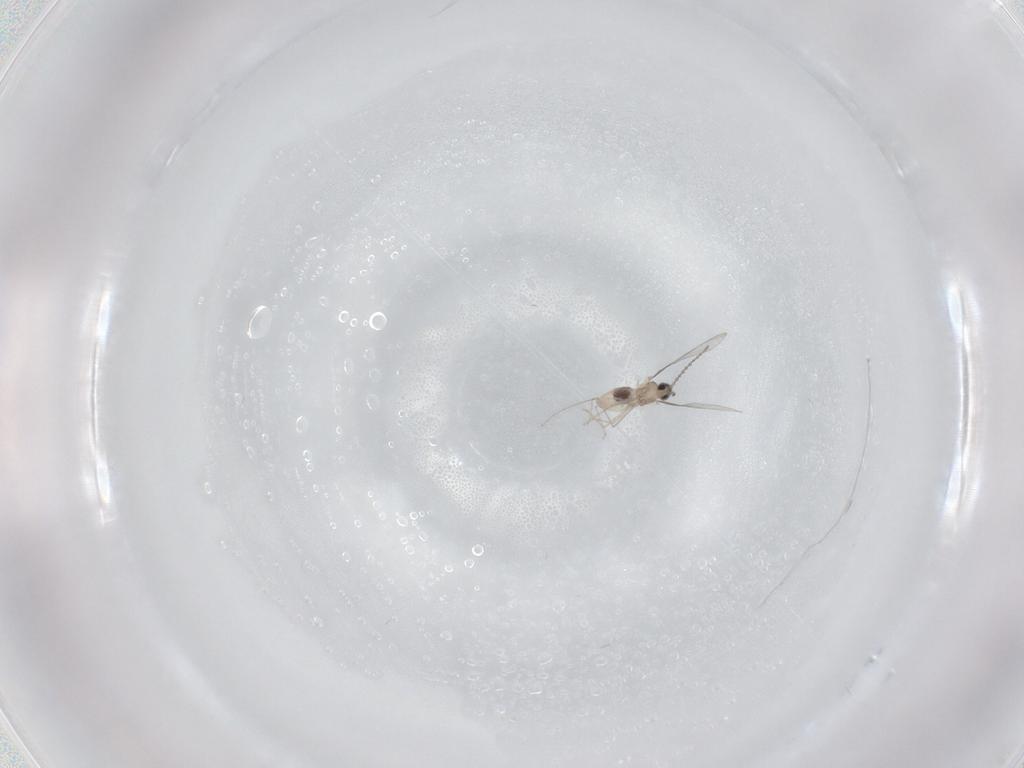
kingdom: Animalia
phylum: Arthropoda
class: Insecta
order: Diptera
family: Cecidomyiidae
